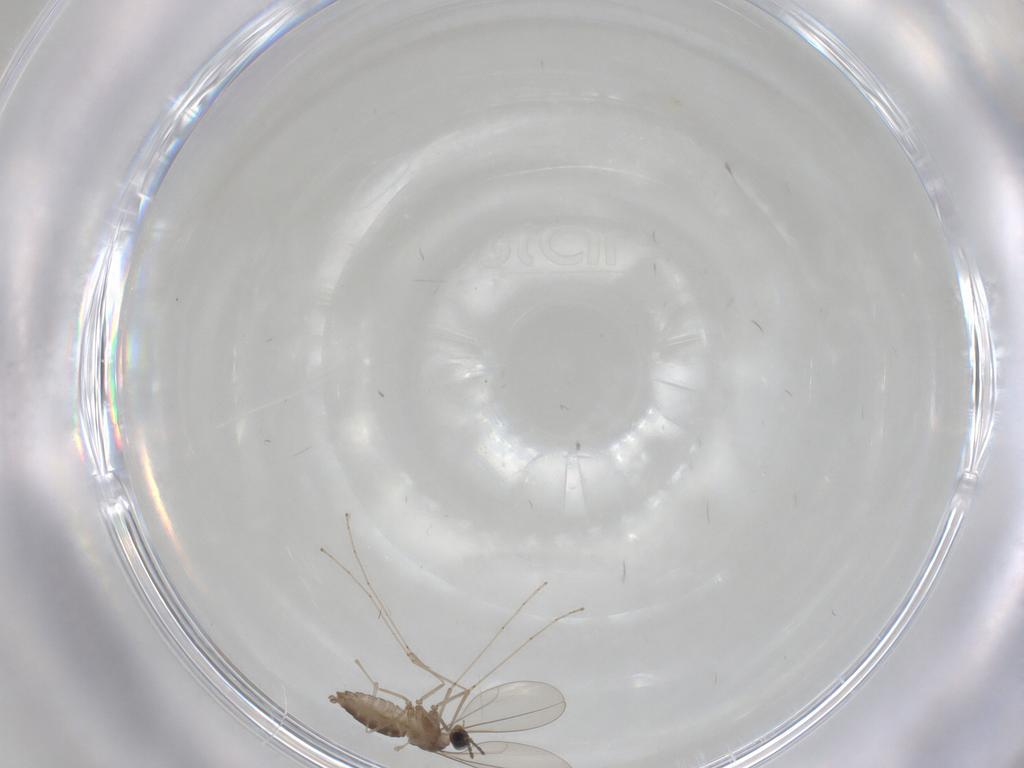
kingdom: Animalia
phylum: Arthropoda
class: Insecta
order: Diptera
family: Cecidomyiidae
